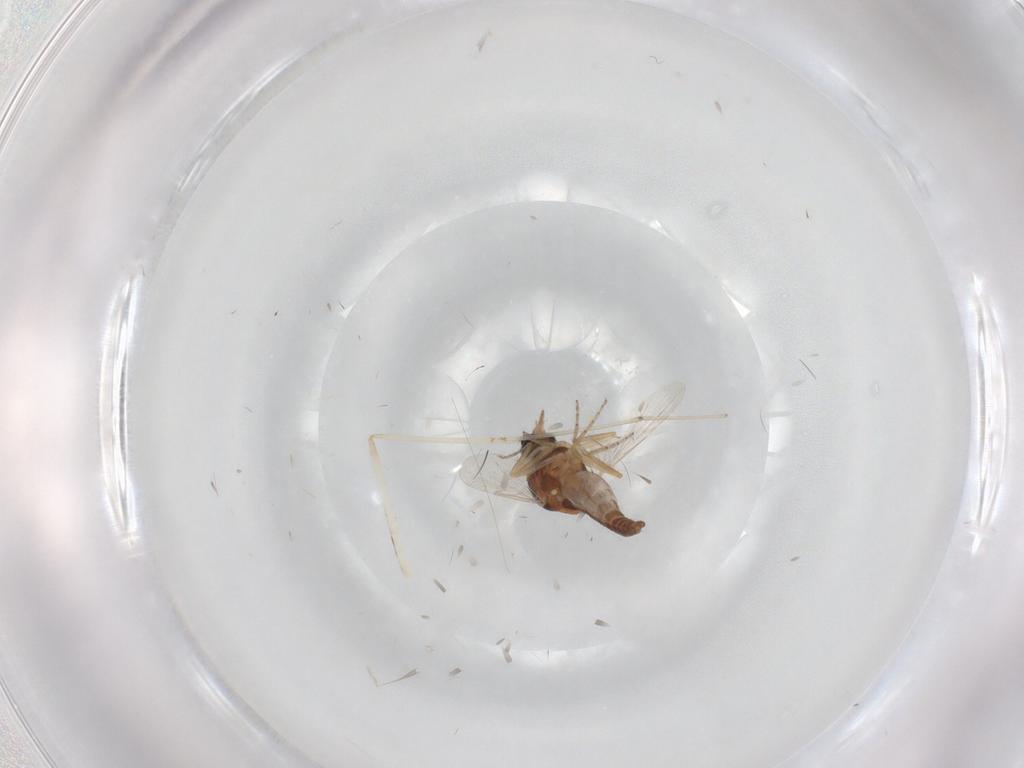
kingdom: Animalia
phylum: Arthropoda
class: Insecta
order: Diptera
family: Ceratopogonidae
